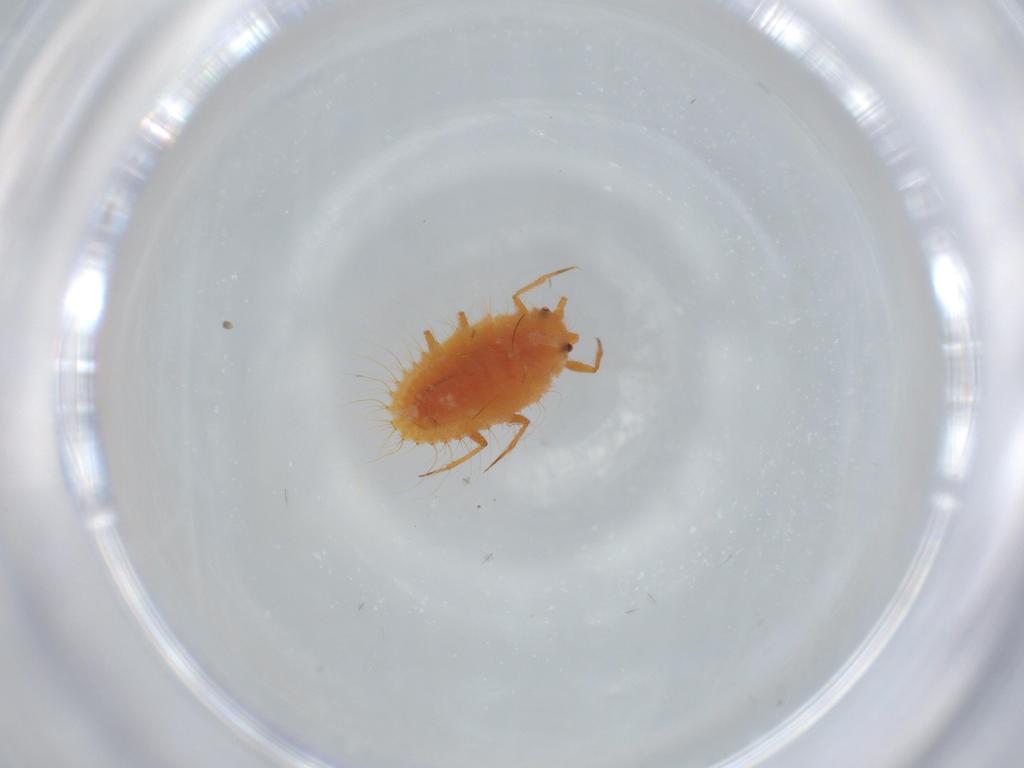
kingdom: Animalia
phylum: Arthropoda
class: Insecta
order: Hemiptera
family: Coccoidea_incertae_sedis
